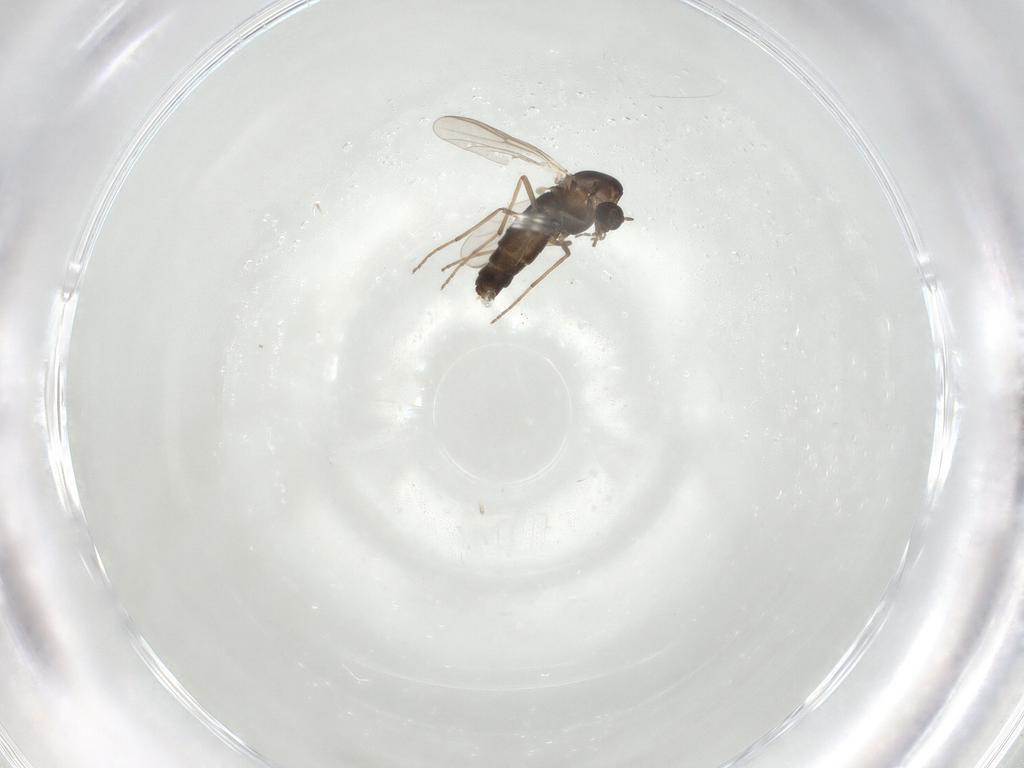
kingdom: Animalia
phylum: Arthropoda
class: Insecta
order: Diptera
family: Chironomidae
